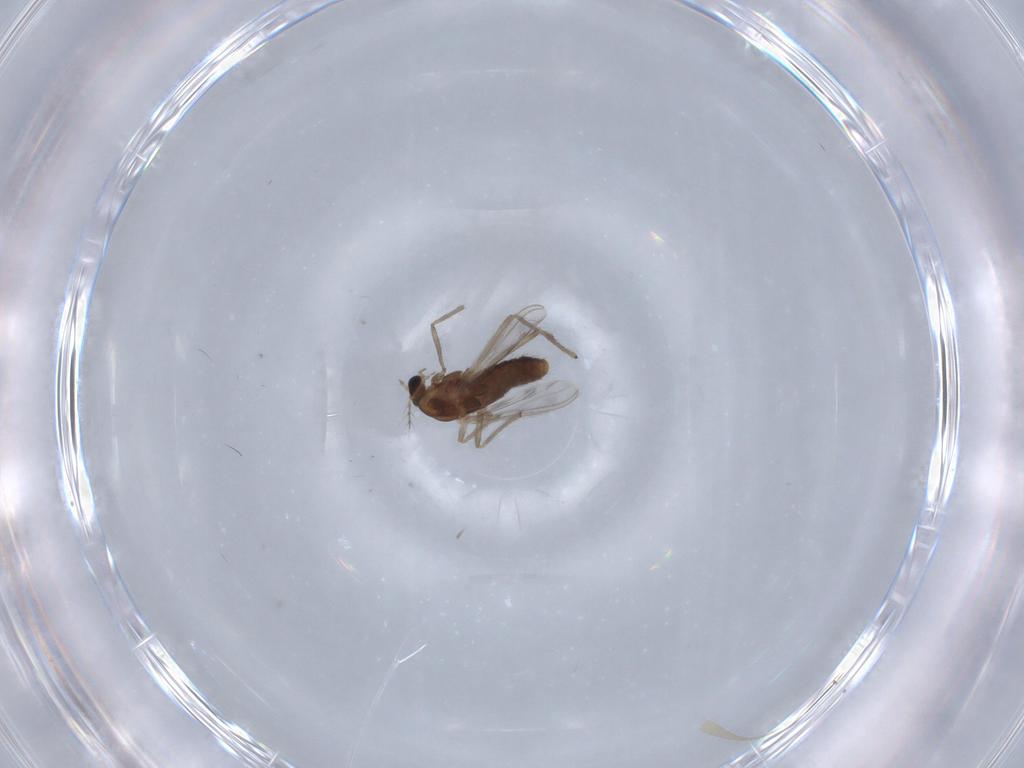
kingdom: Animalia
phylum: Arthropoda
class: Insecta
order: Diptera
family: Chironomidae
